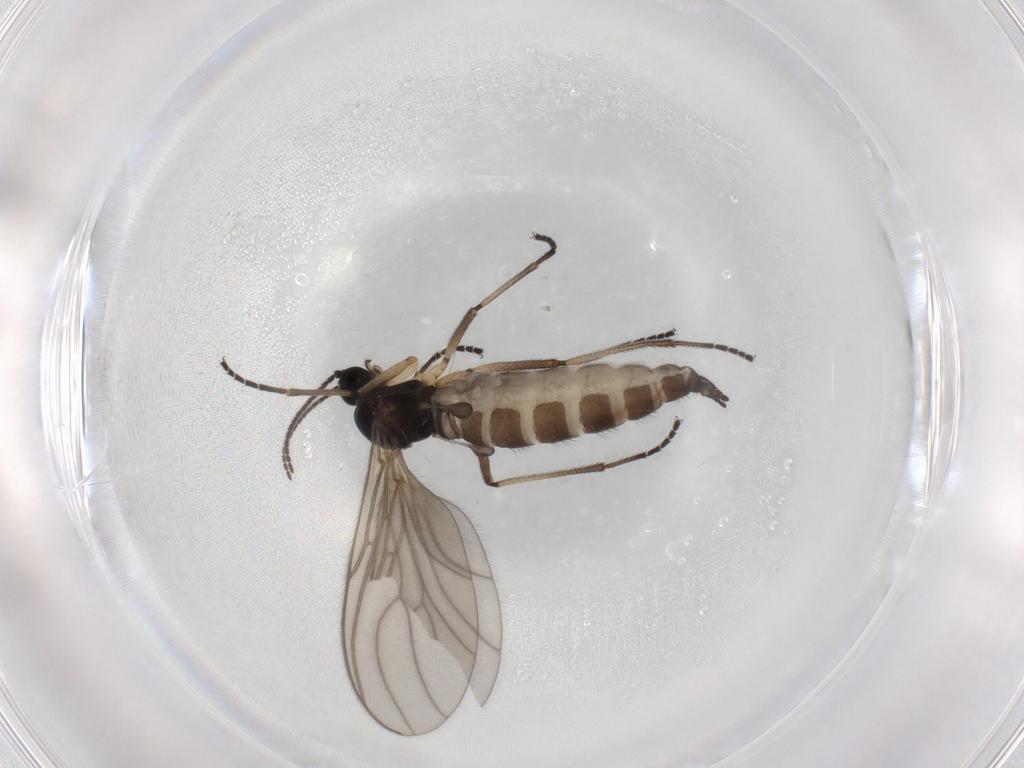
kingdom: Animalia
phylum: Arthropoda
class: Insecta
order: Diptera
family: Sciaridae
